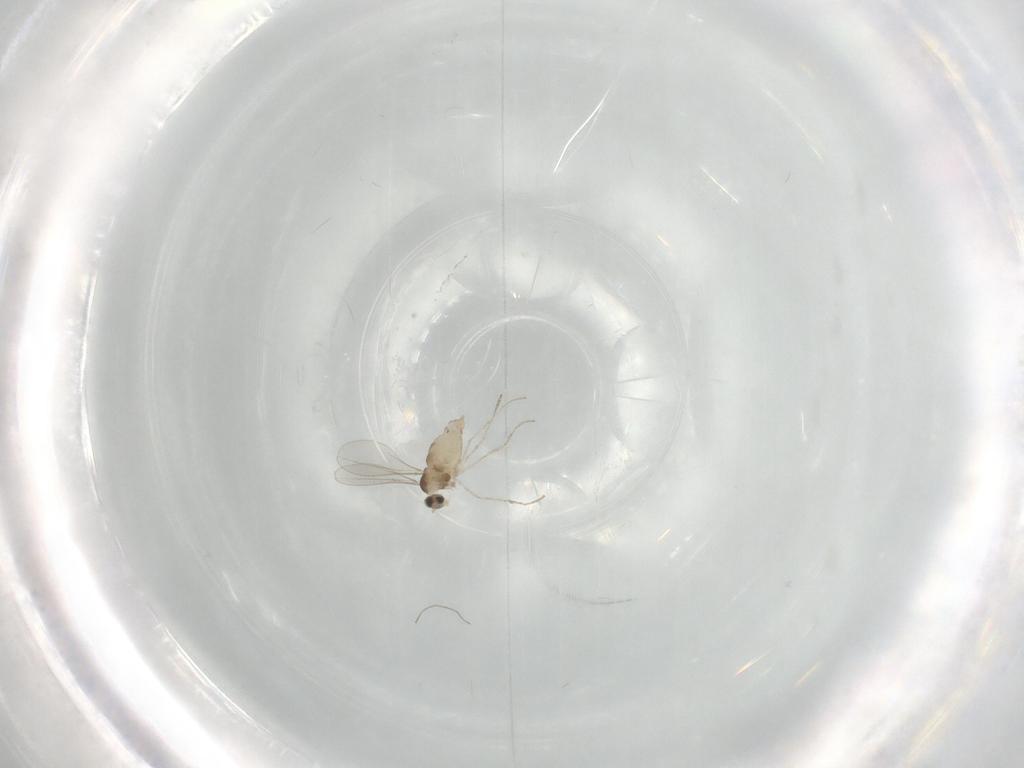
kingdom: Animalia
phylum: Arthropoda
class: Insecta
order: Diptera
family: Cecidomyiidae
